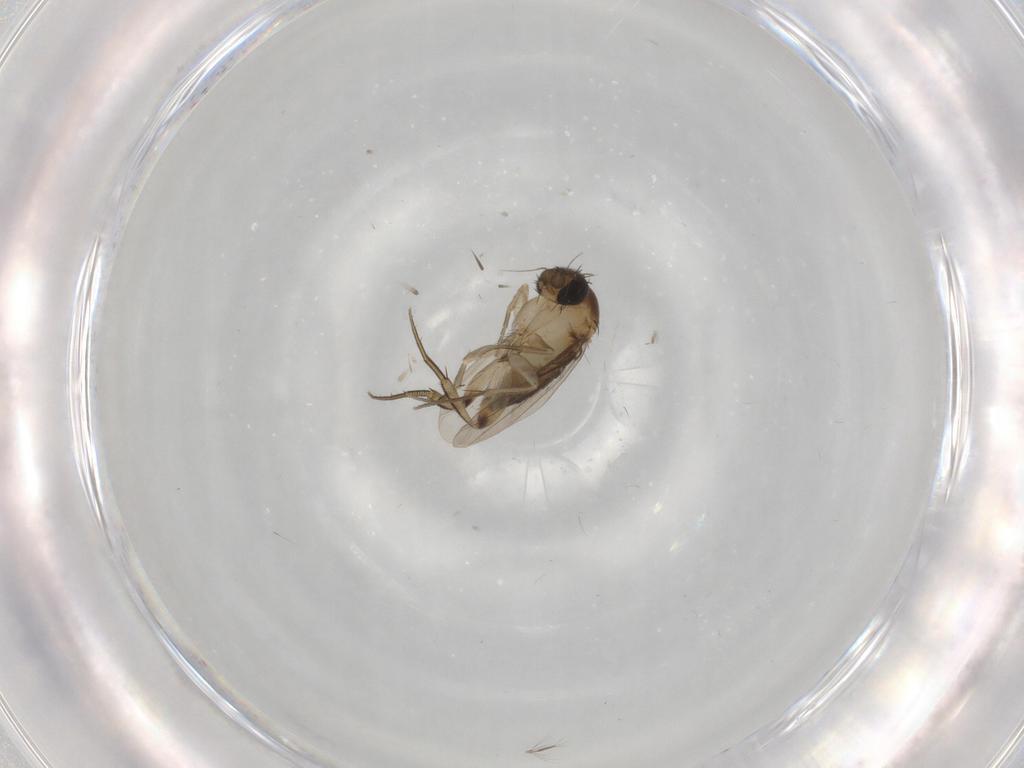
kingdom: Animalia
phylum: Arthropoda
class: Insecta
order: Diptera
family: Phoridae
